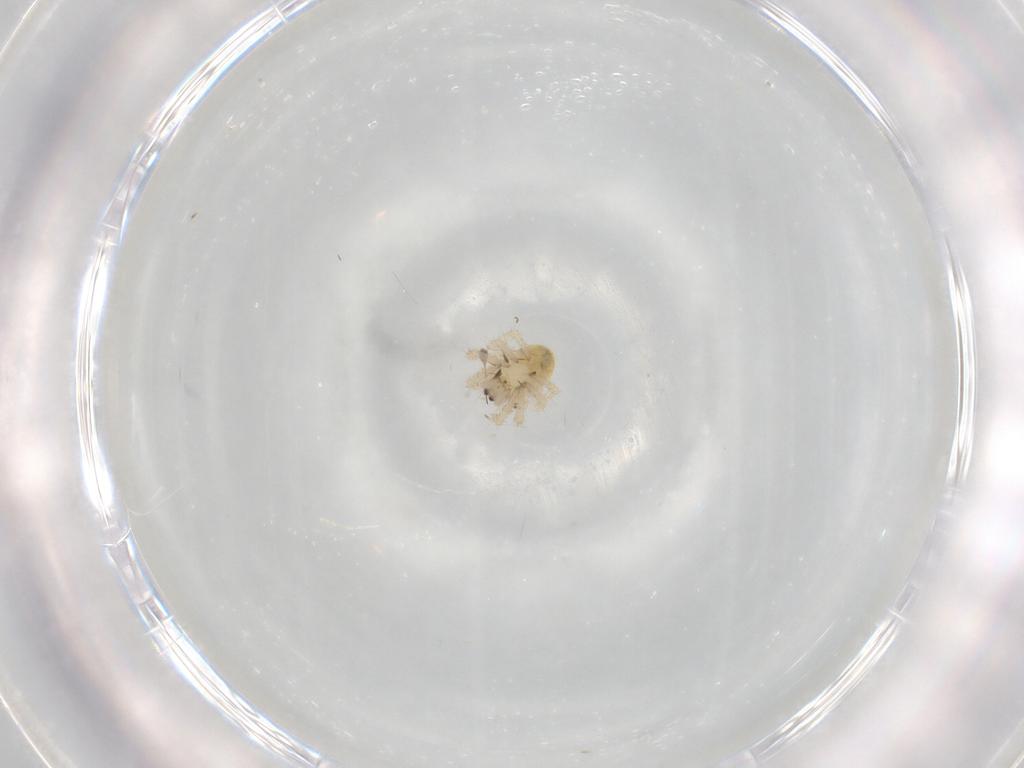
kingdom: Animalia
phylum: Arthropoda
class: Arachnida
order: Araneae
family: Theridiidae
